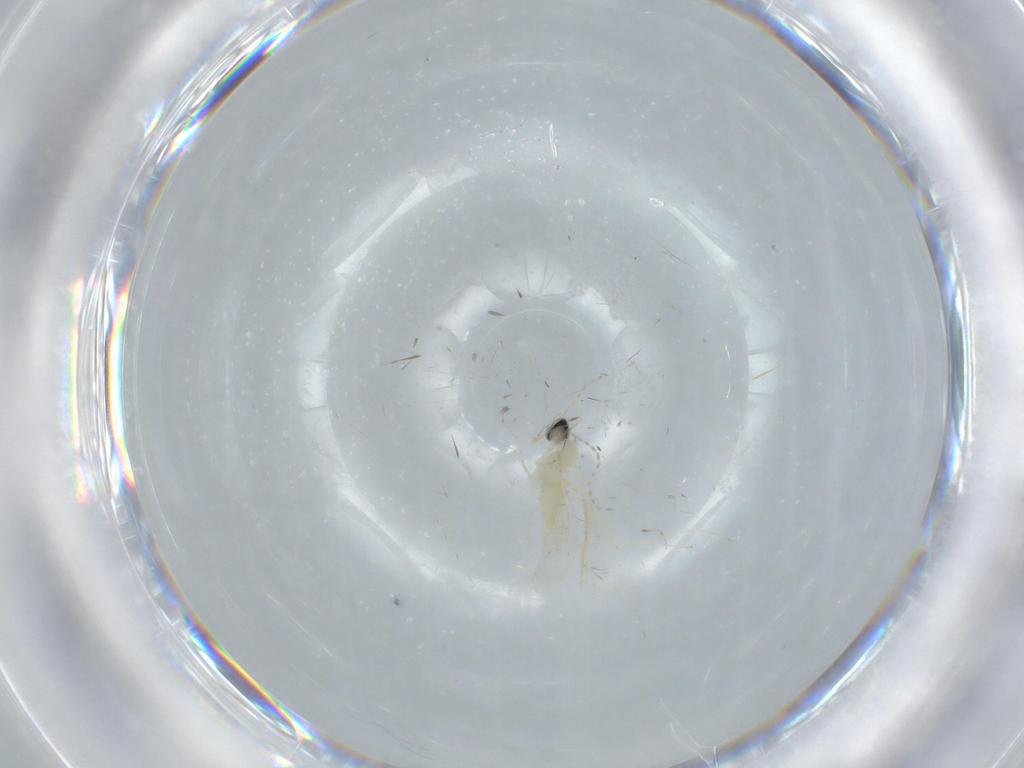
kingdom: Animalia
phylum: Arthropoda
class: Insecta
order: Diptera
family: Cecidomyiidae
